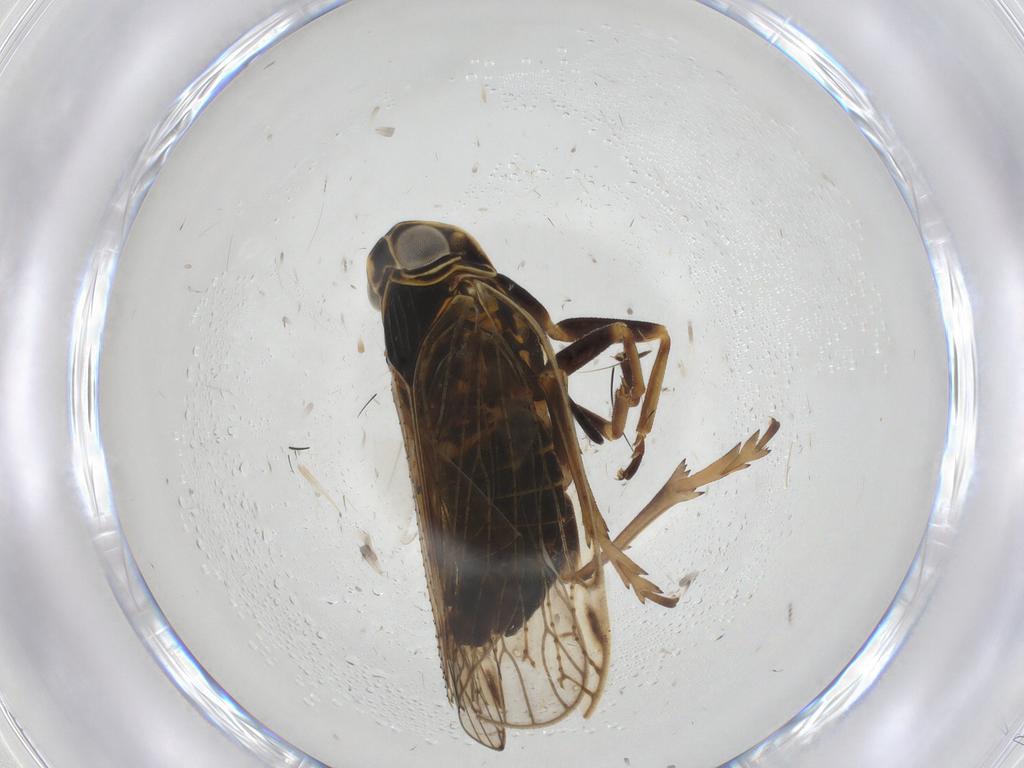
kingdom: Animalia
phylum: Arthropoda
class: Insecta
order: Hemiptera
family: Cixiidae
